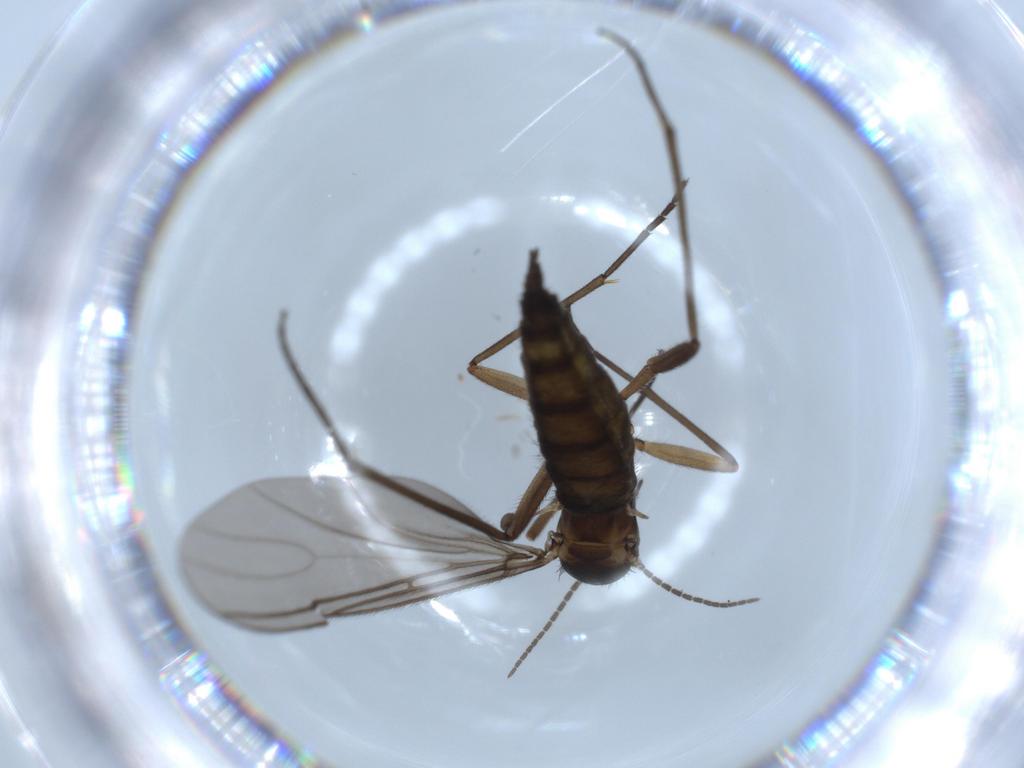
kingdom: Animalia
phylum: Arthropoda
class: Insecta
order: Diptera
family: Sciaridae
